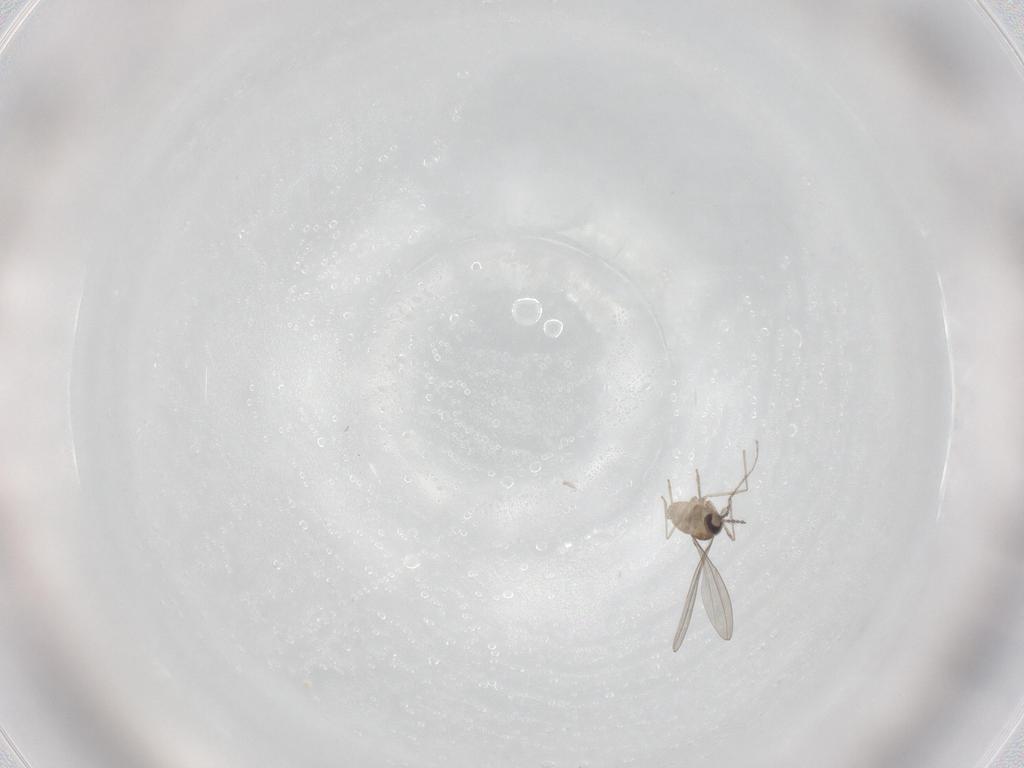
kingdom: Animalia
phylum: Arthropoda
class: Insecta
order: Diptera
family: Cecidomyiidae
